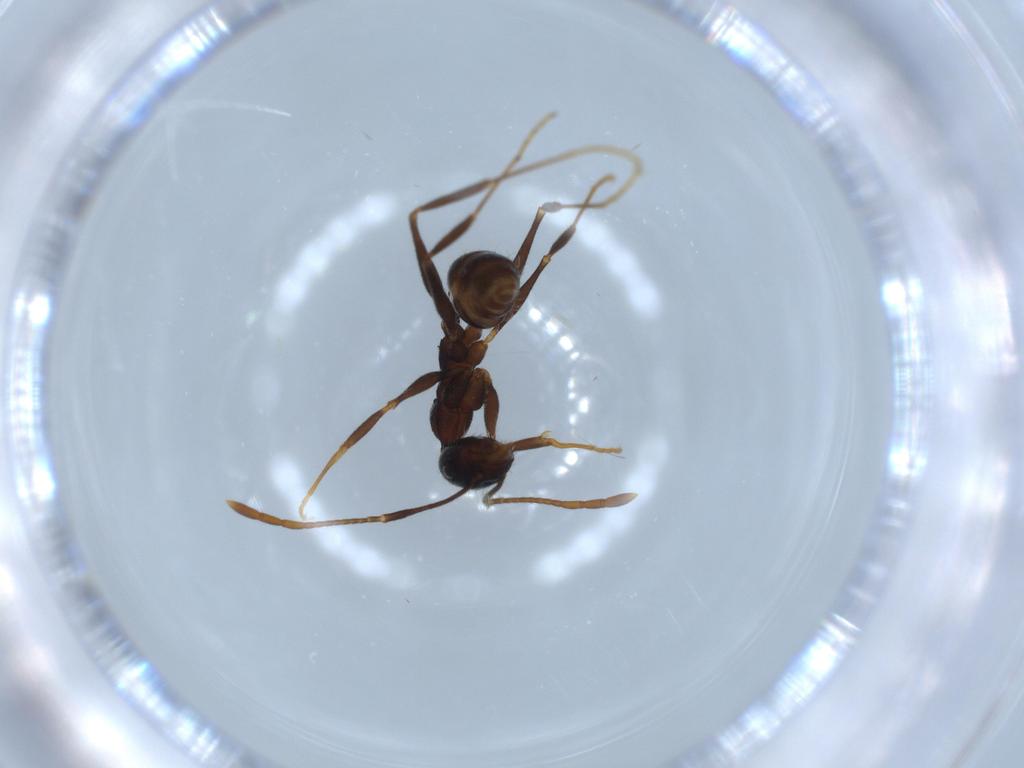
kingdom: Animalia
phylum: Arthropoda
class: Insecta
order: Hymenoptera
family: Formicidae
